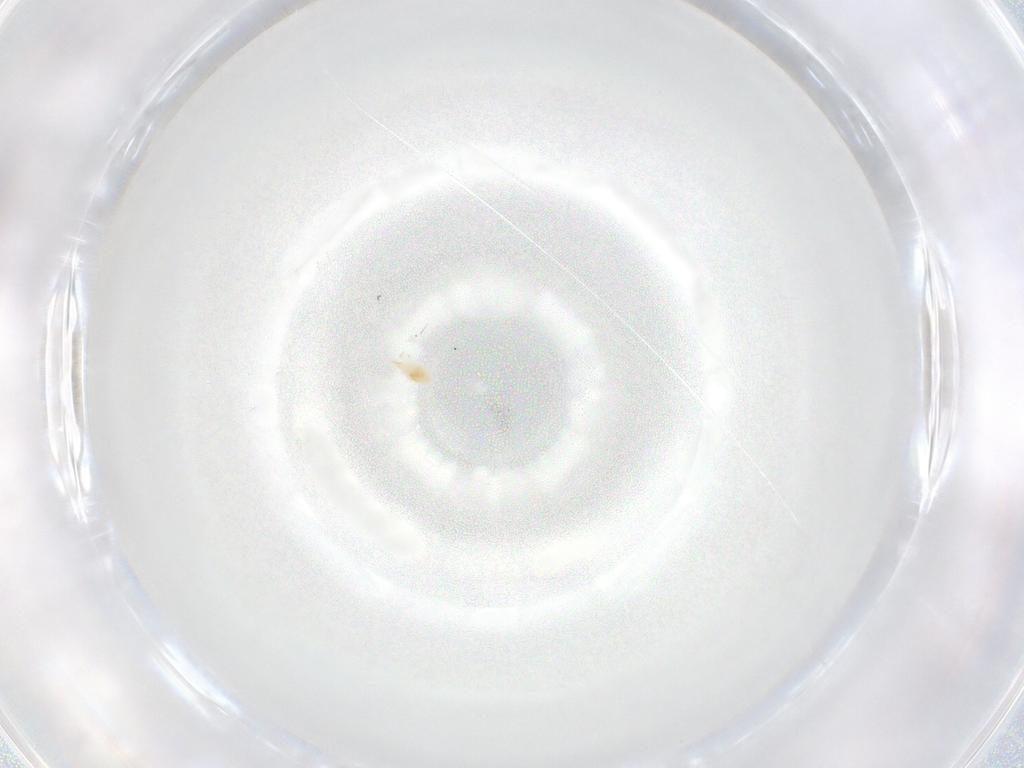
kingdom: Animalia
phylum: Arthropoda
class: Arachnida
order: Trombidiformes
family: Cunaxidae
